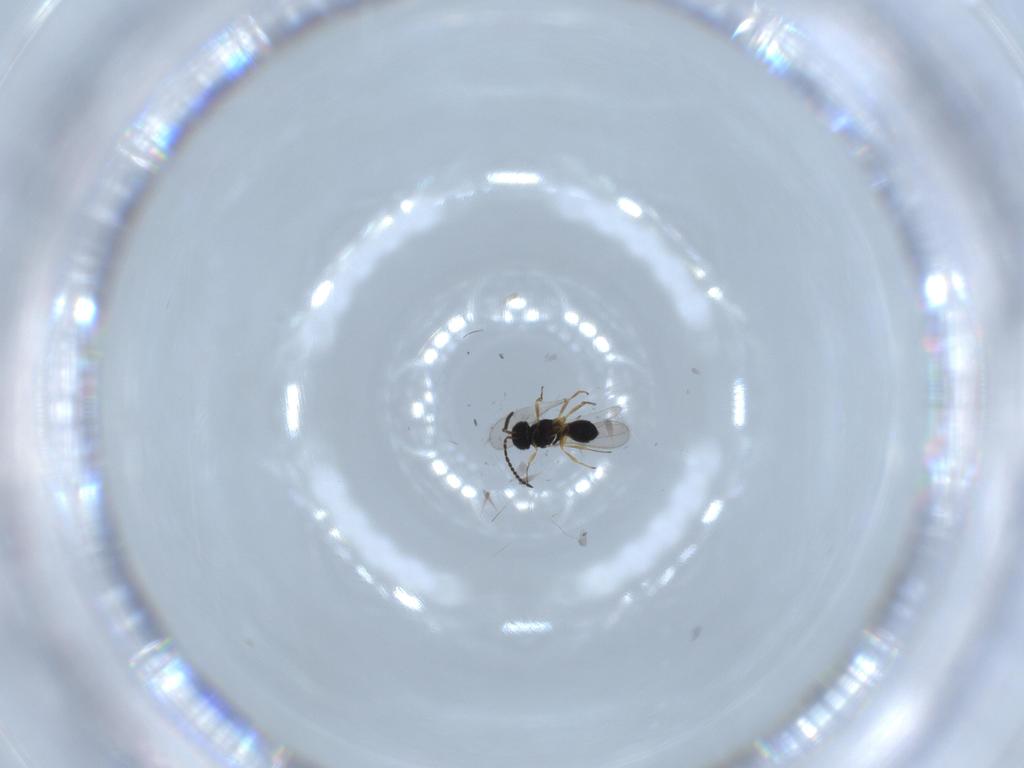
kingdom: Animalia
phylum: Arthropoda
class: Insecta
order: Hymenoptera
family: Scelionidae
